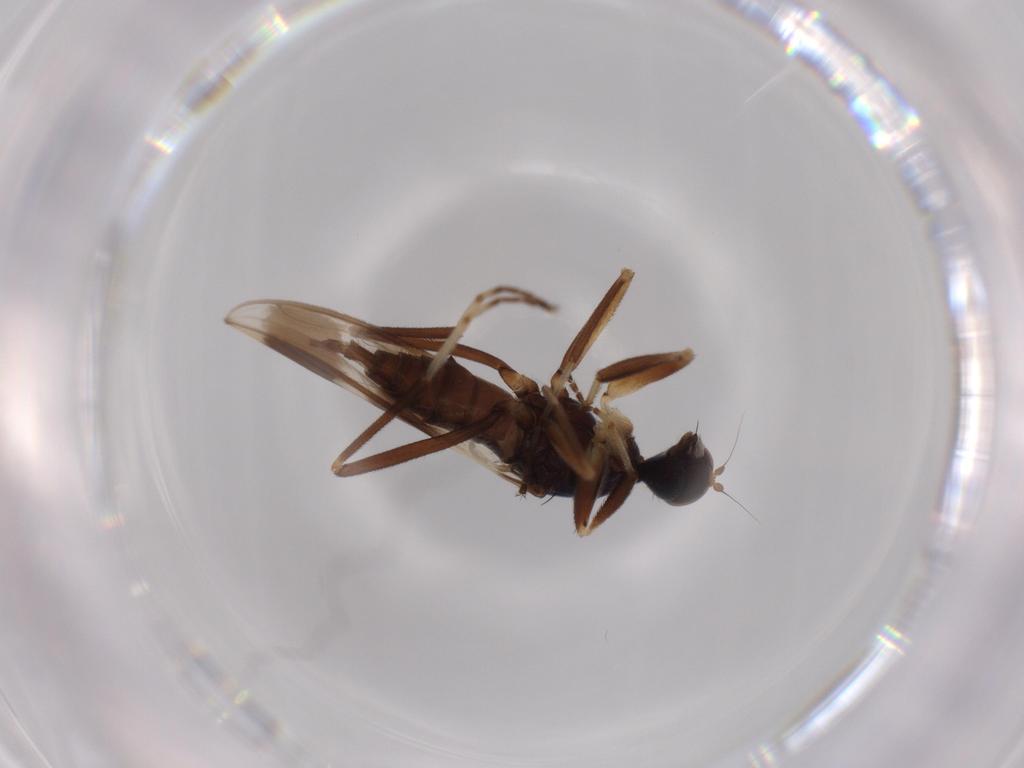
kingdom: Animalia
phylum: Arthropoda
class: Insecta
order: Diptera
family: Hybotidae
